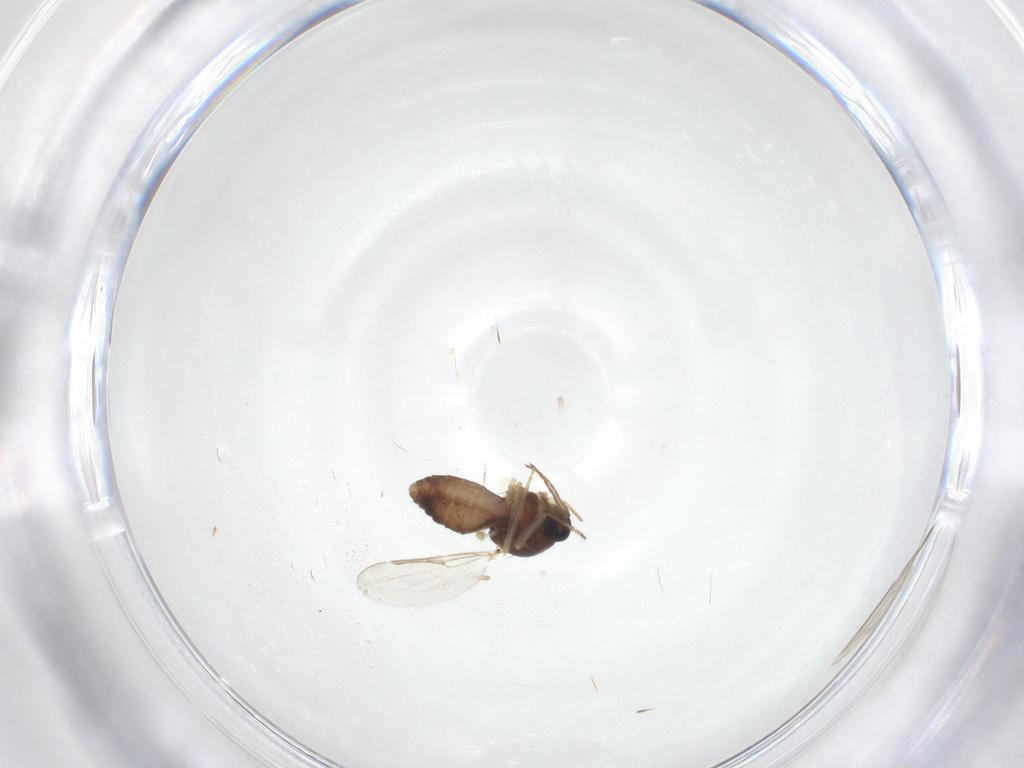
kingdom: Animalia
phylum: Arthropoda
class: Insecta
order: Diptera
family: Ceratopogonidae
